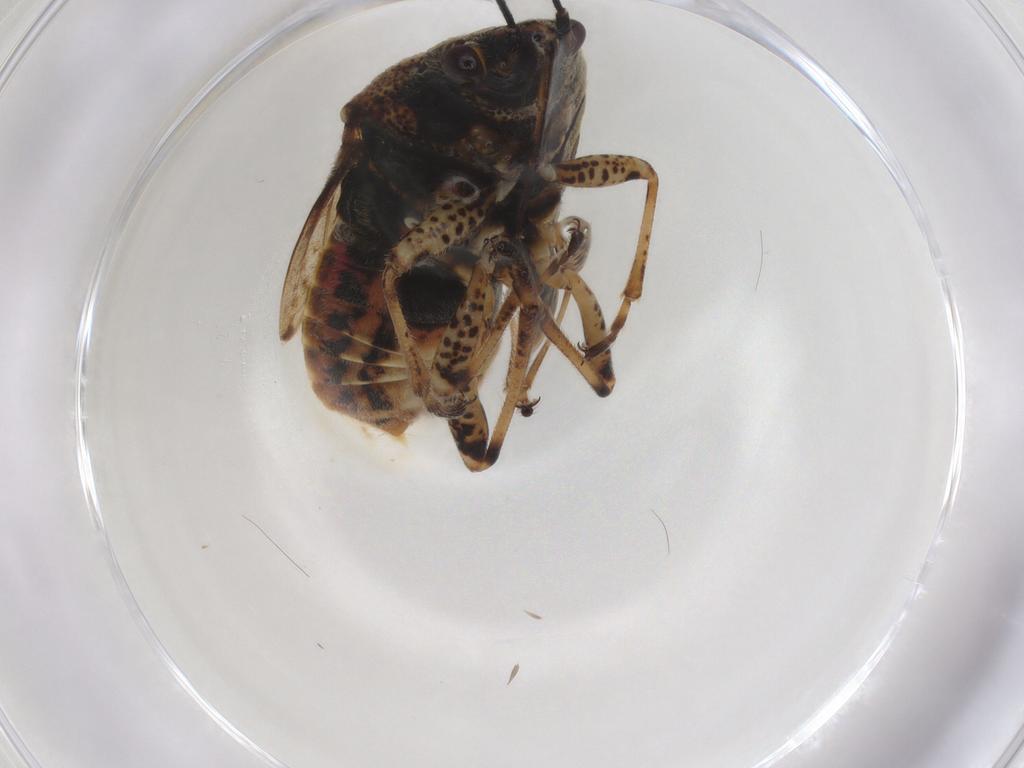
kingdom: Animalia
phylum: Arthropoda
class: Insecta
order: Hemiptera
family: Lygaeidae
